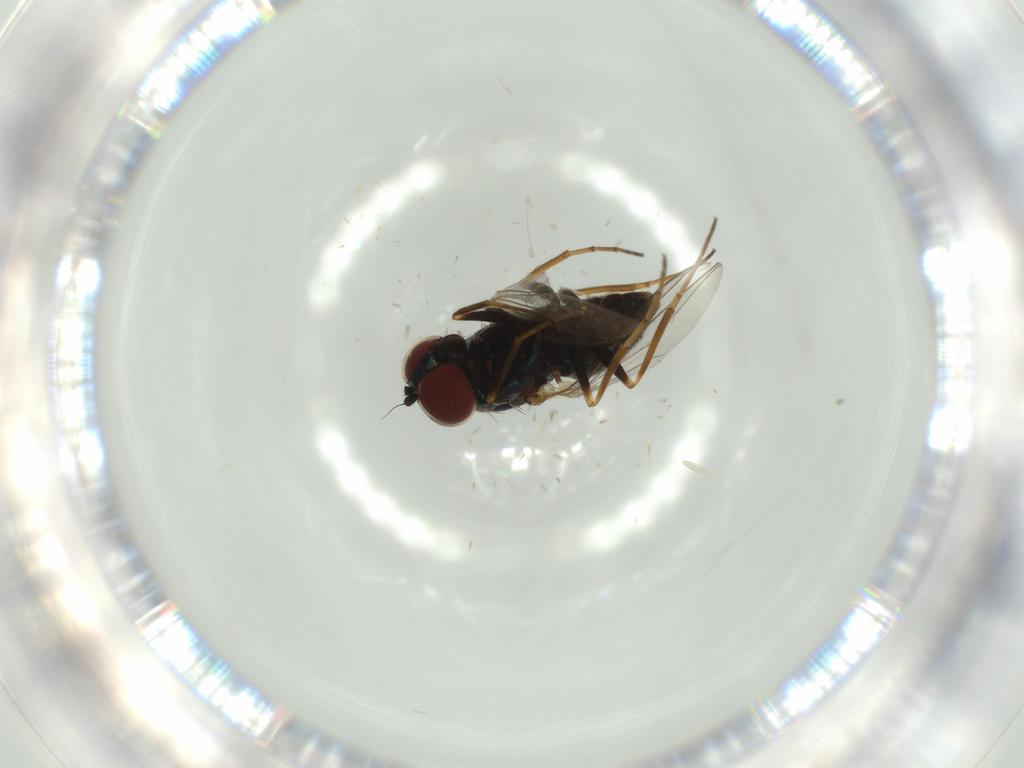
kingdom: Animalia
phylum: Arthropoda
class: Insecta
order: Diptera
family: Dolichopodidae
